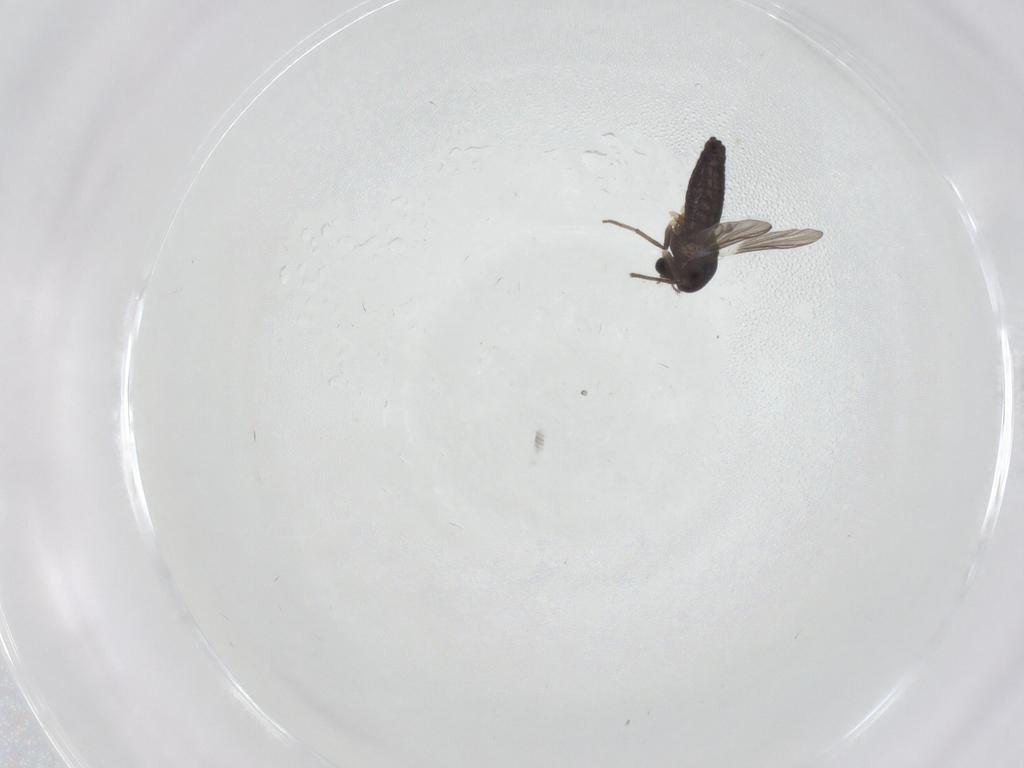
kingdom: Animalia
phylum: Arthropoda
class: Insecta
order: Diptera
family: Chironomidae
